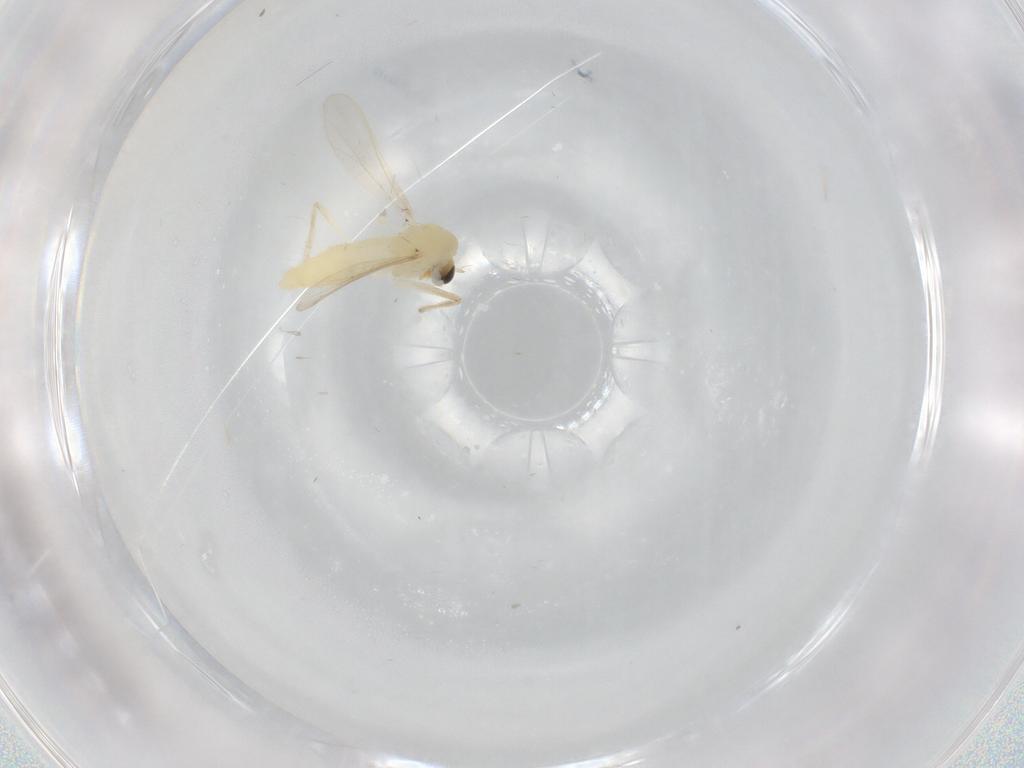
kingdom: Animalia
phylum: Arthropoda
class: Insecta
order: Diptera
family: Chironomidae
